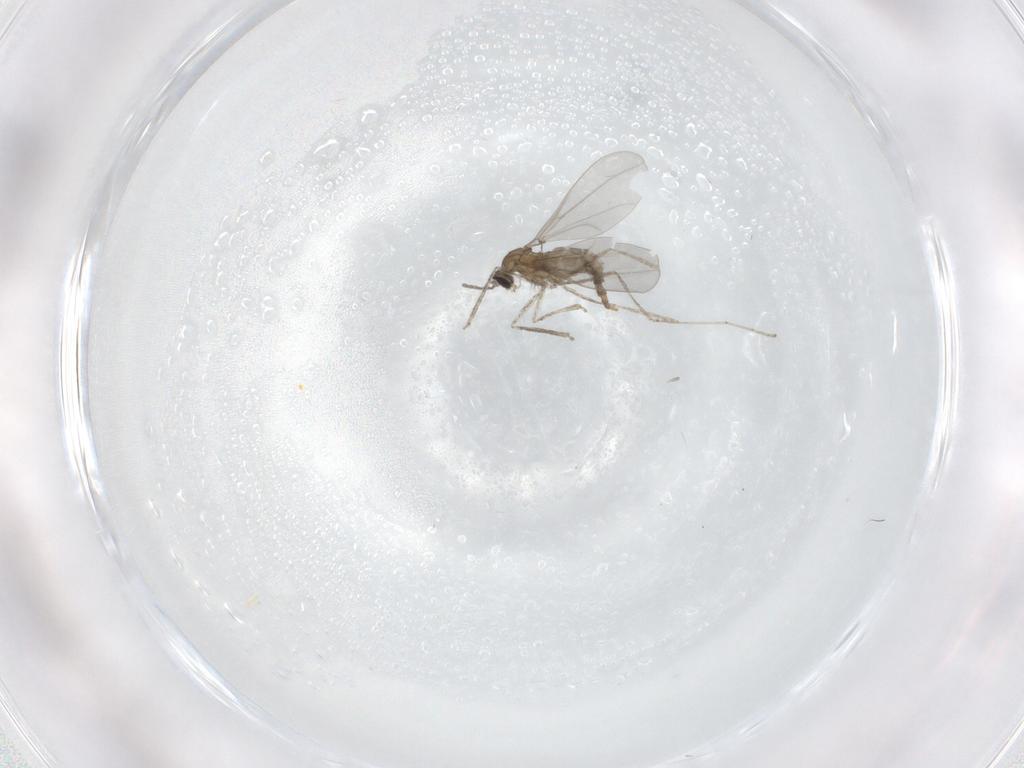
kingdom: Animalia
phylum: Arthropoda
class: Insecta
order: Diptera
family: Cecidomyiidae
